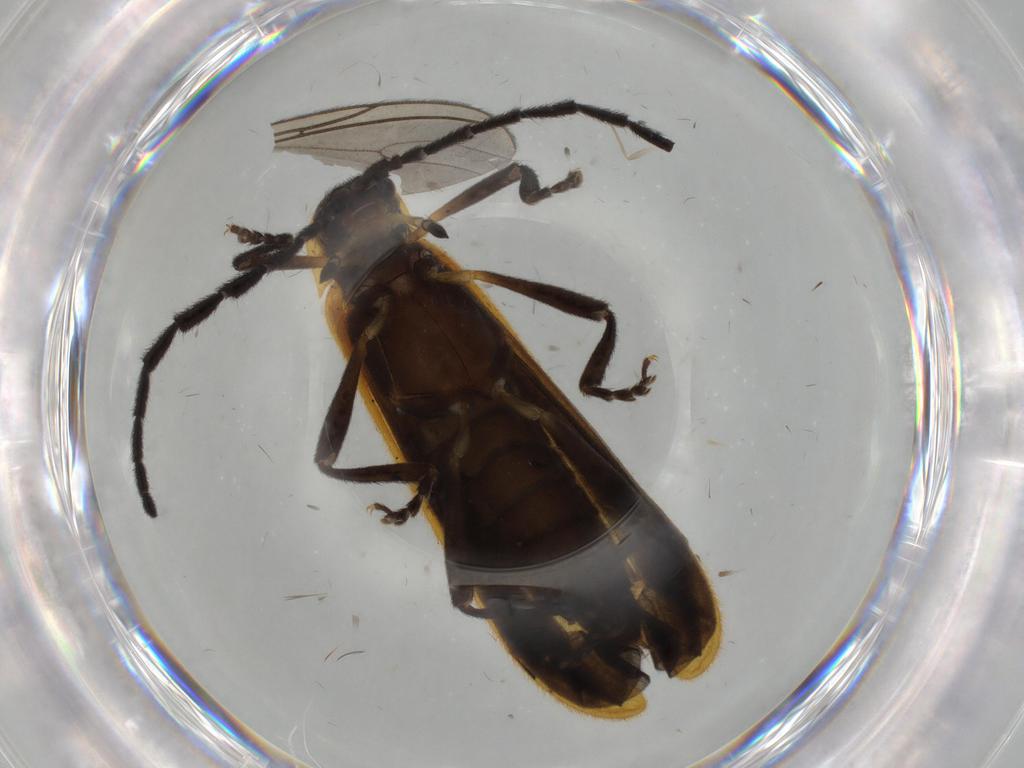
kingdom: Animalia
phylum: Arthropoda
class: Insecta
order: Coleoptera
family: Lycidae
